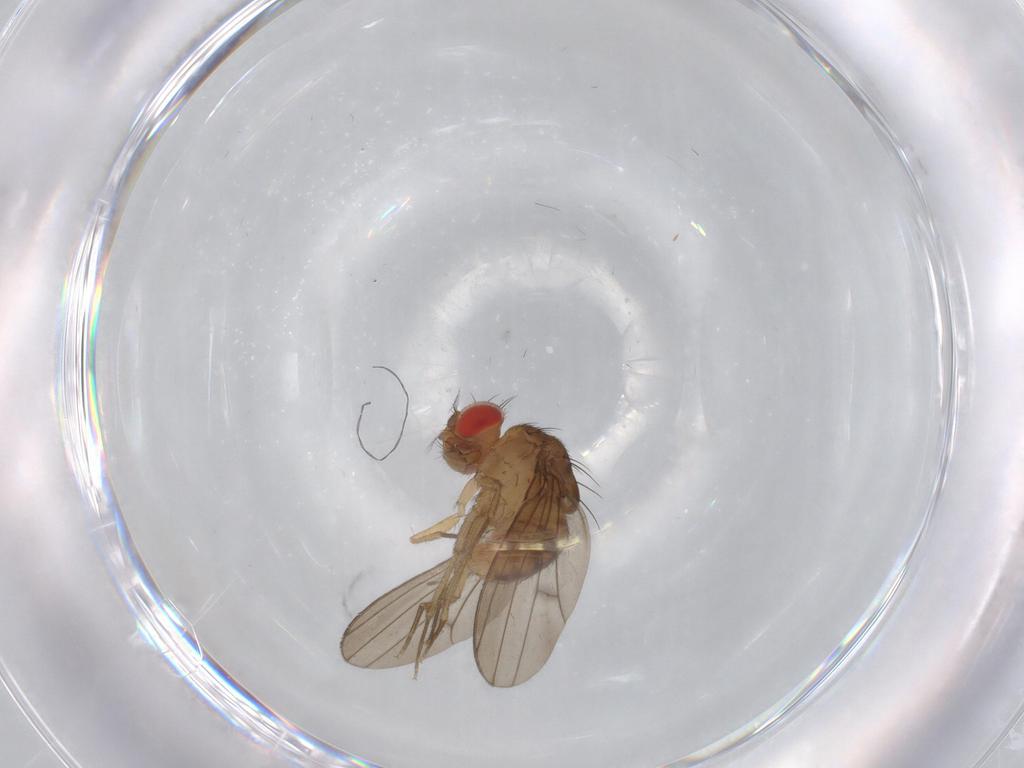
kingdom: Animalia
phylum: Arthropoda
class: Insecta
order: Diptera
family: Drosophilidae
